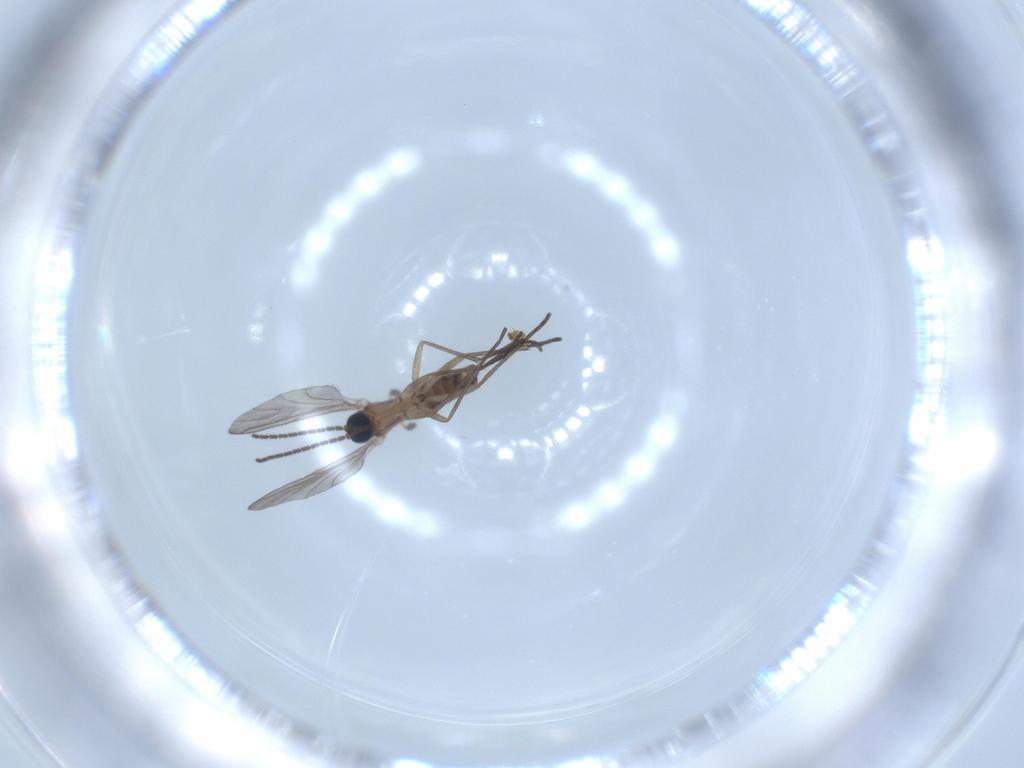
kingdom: Animalia
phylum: Arthropoda
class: Insecta
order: Diptera
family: Sciaridae
